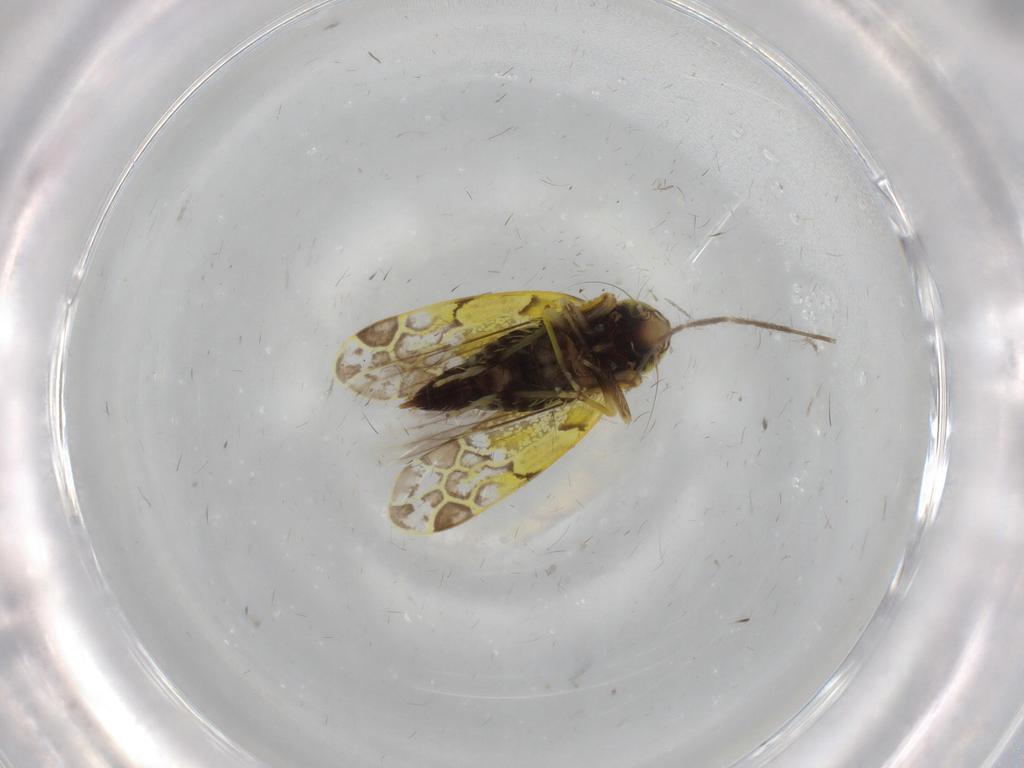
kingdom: Animalia
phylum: Arthropoda
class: Insecta
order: Hemiptera
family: Cicadellidae
